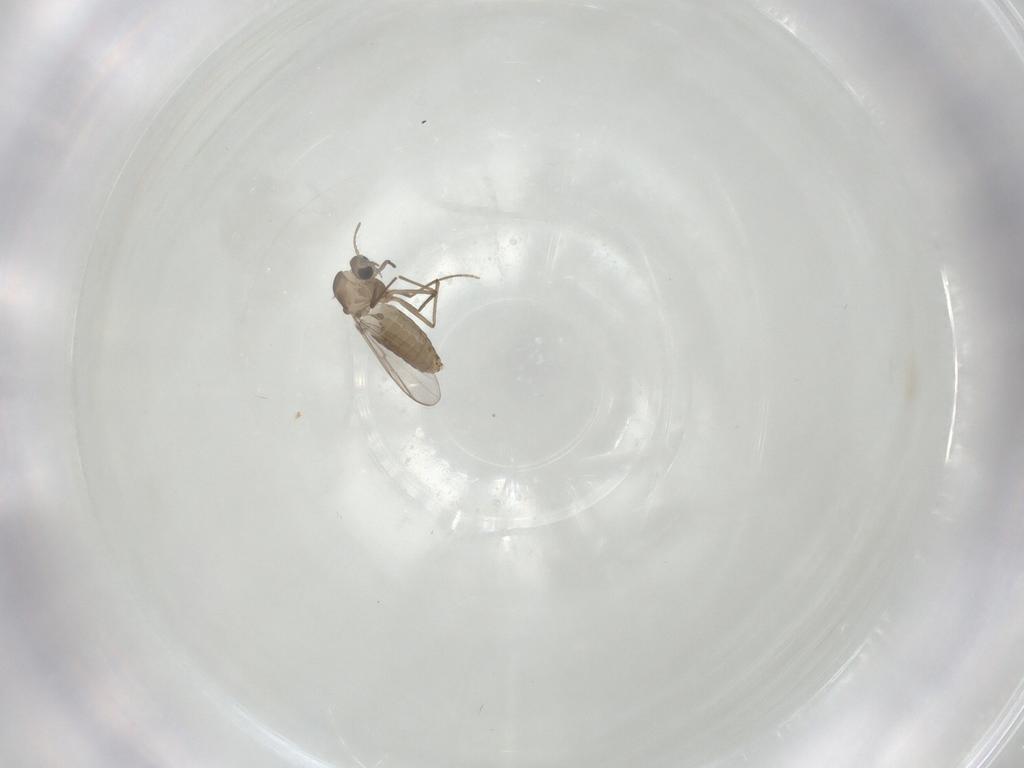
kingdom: Animalia
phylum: Arthropoda
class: Insecta
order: Diptera
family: Chironomidae
